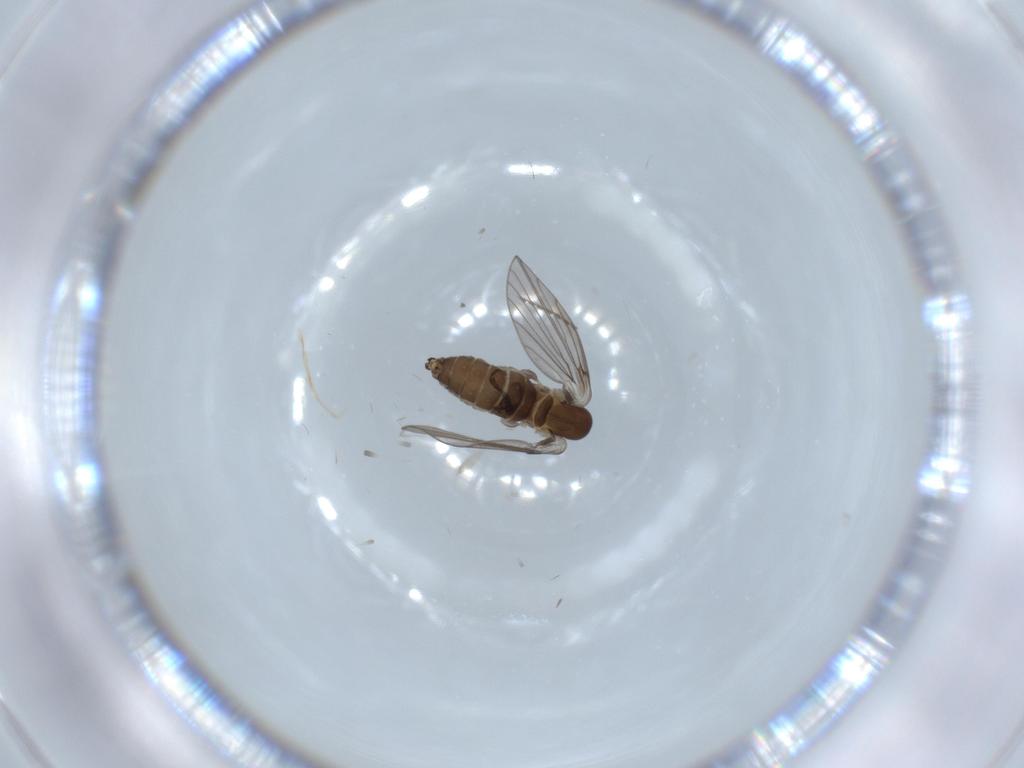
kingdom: Animalia
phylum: Arthropoda
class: Insecta
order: Diptera
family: Psychodidae
